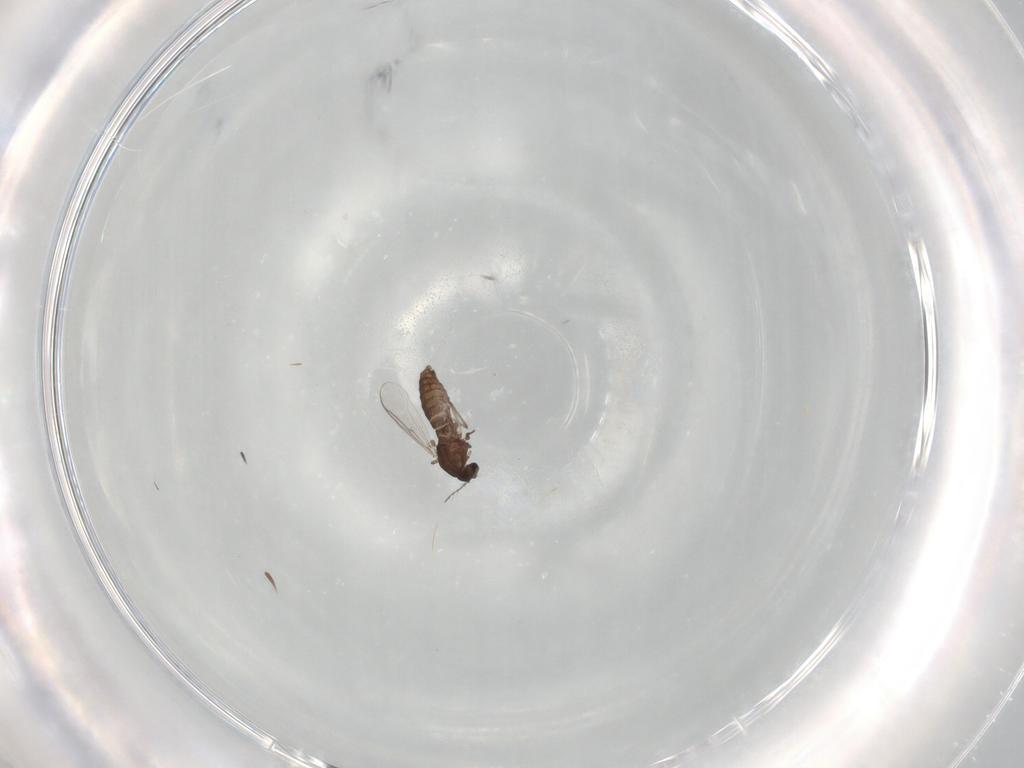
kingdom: Animalia
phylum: Arthropoda
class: Insecta
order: Diptera
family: Chironomidae
